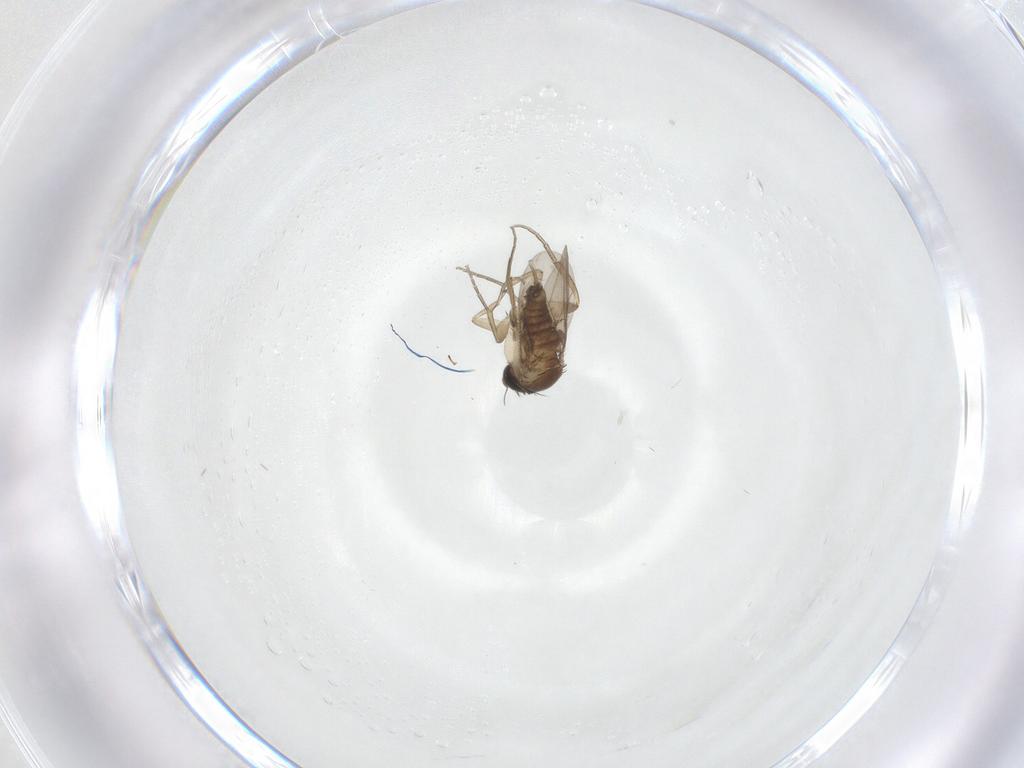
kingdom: Animalia
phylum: Arthropoda
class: Insecta
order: Diptera
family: Phoridae
